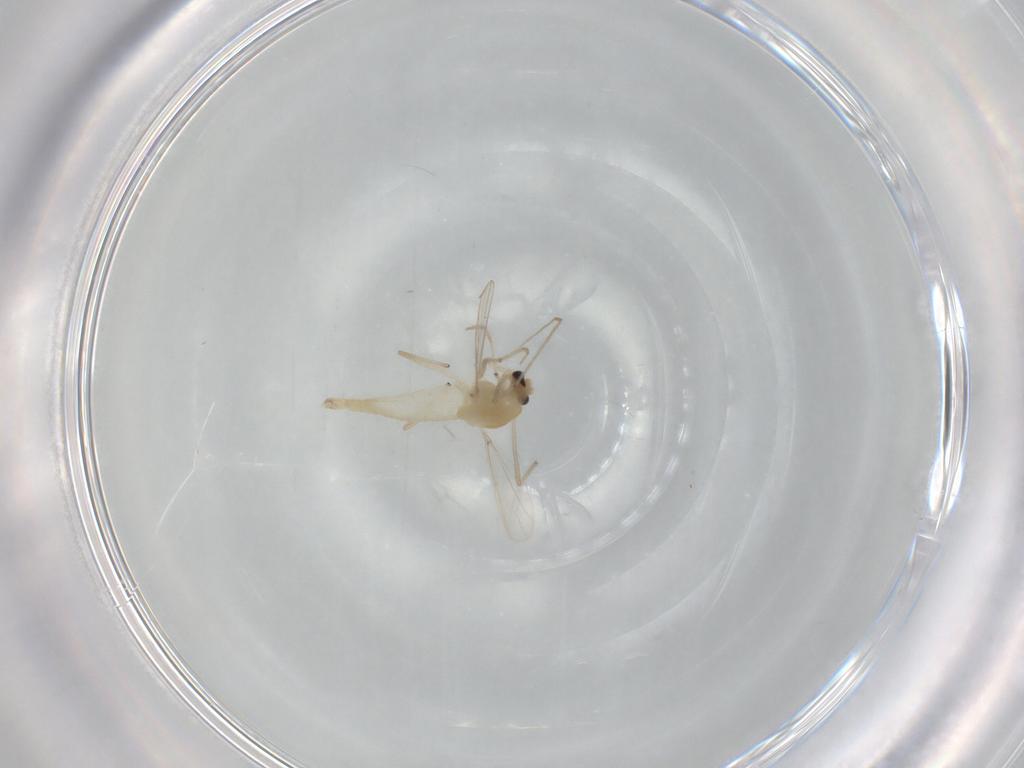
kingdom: Animalia
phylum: Arthropoda
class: Insecta
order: Diptera
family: Chironomidae
